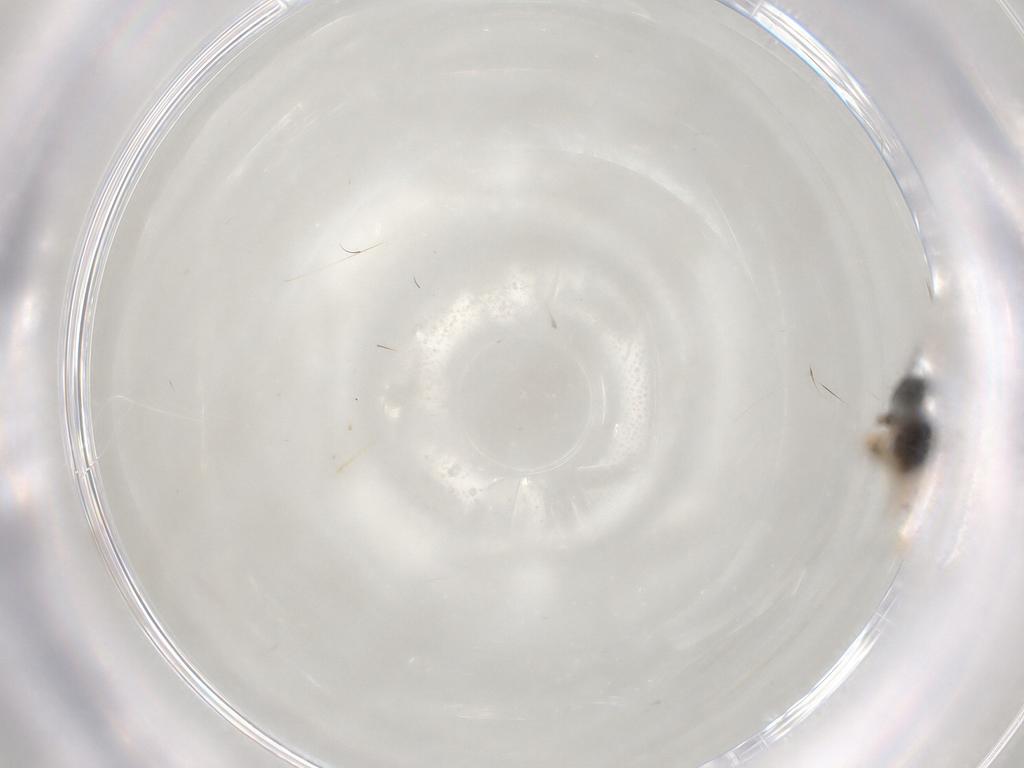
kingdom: Animalia
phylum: Arthropoda
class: Insecta
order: Hymenoptera
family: Pteromalidae
